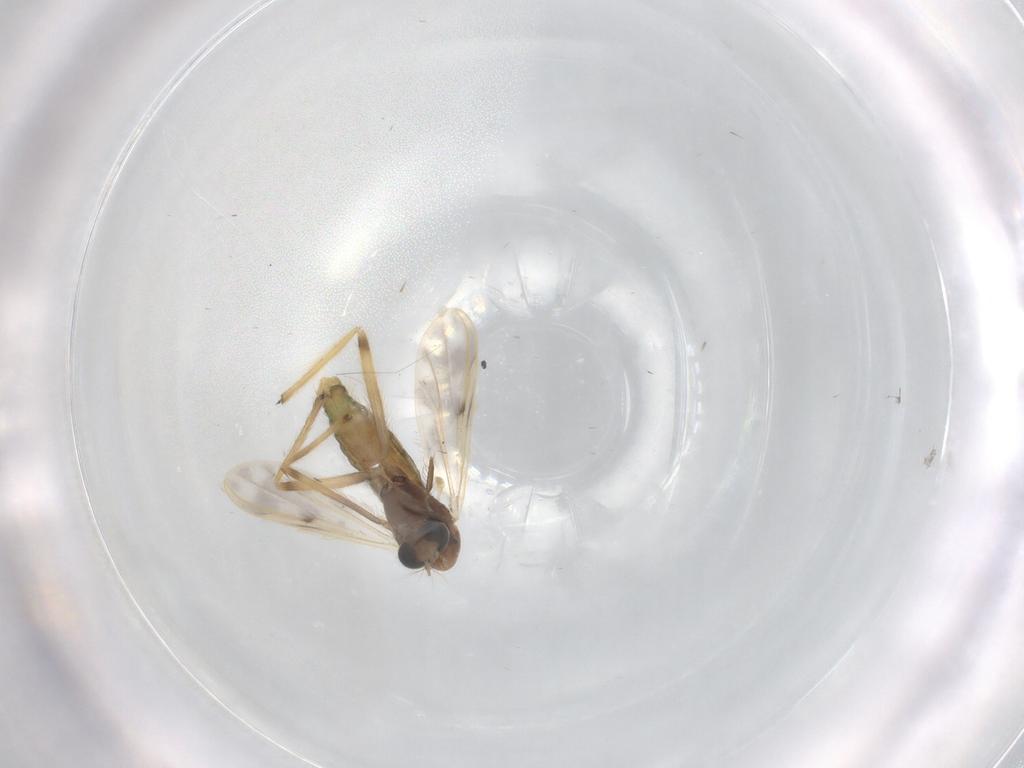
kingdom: Animalia
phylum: Arthropoda
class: Insecta
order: Diptera
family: Chironomidae
